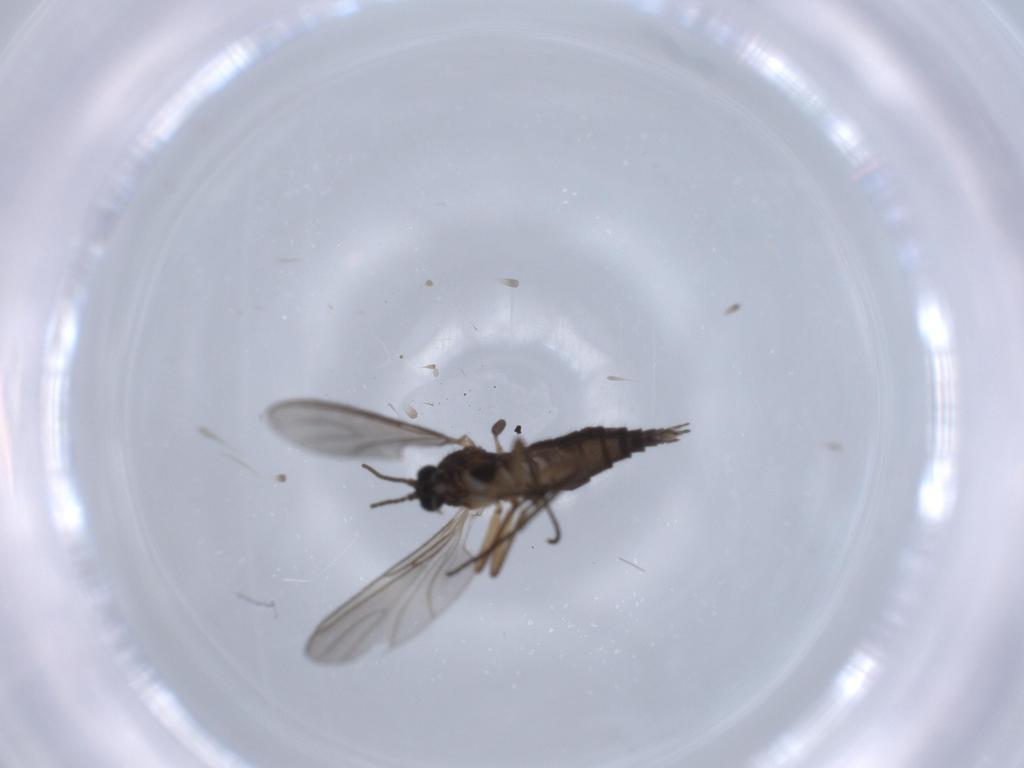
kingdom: Animalia
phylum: Arthropoda
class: Insecta
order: Diptera
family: Sciaridae
